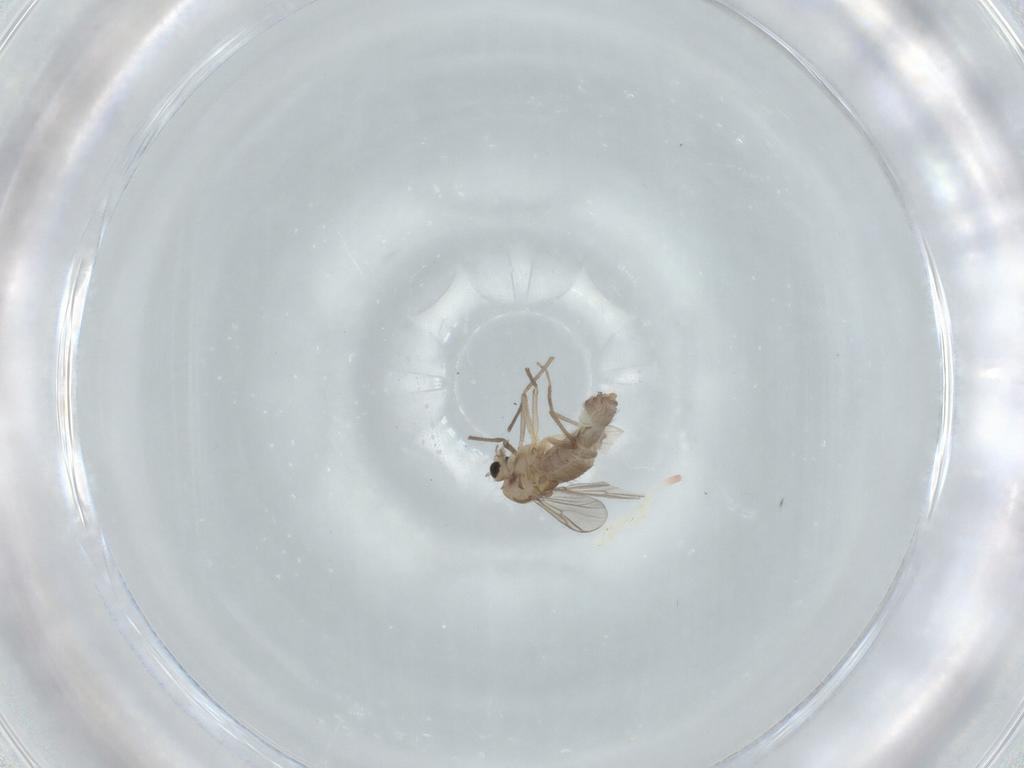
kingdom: Animalia
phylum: Arthropoda
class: Insecta
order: Diptera
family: Chironomidae
